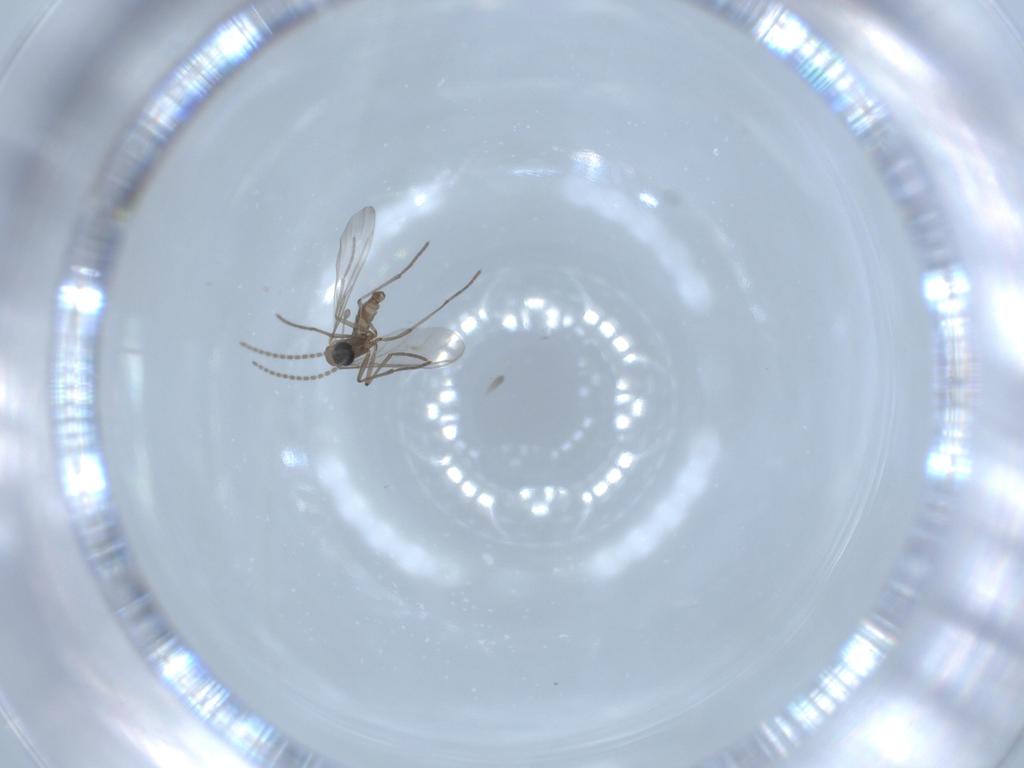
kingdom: Animalia
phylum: Arthropoda
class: Insecta
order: Diptera
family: Sciaridae
